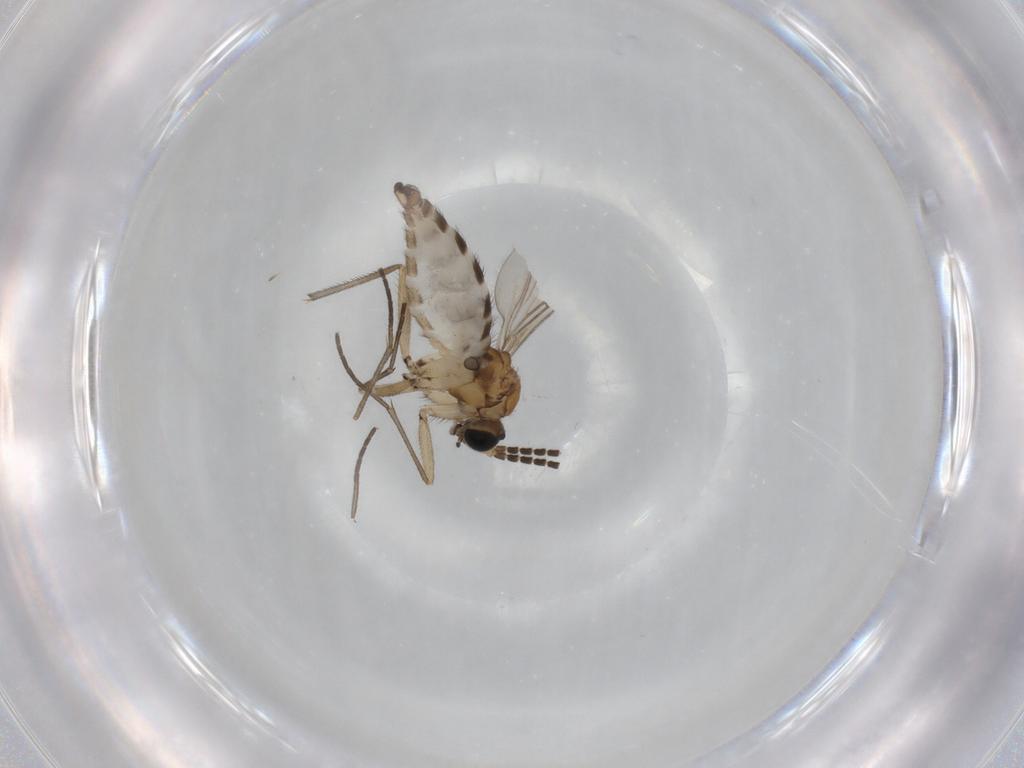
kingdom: Animalia
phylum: Arthropoda
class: Insecta
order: Diptera
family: Sciaridae
